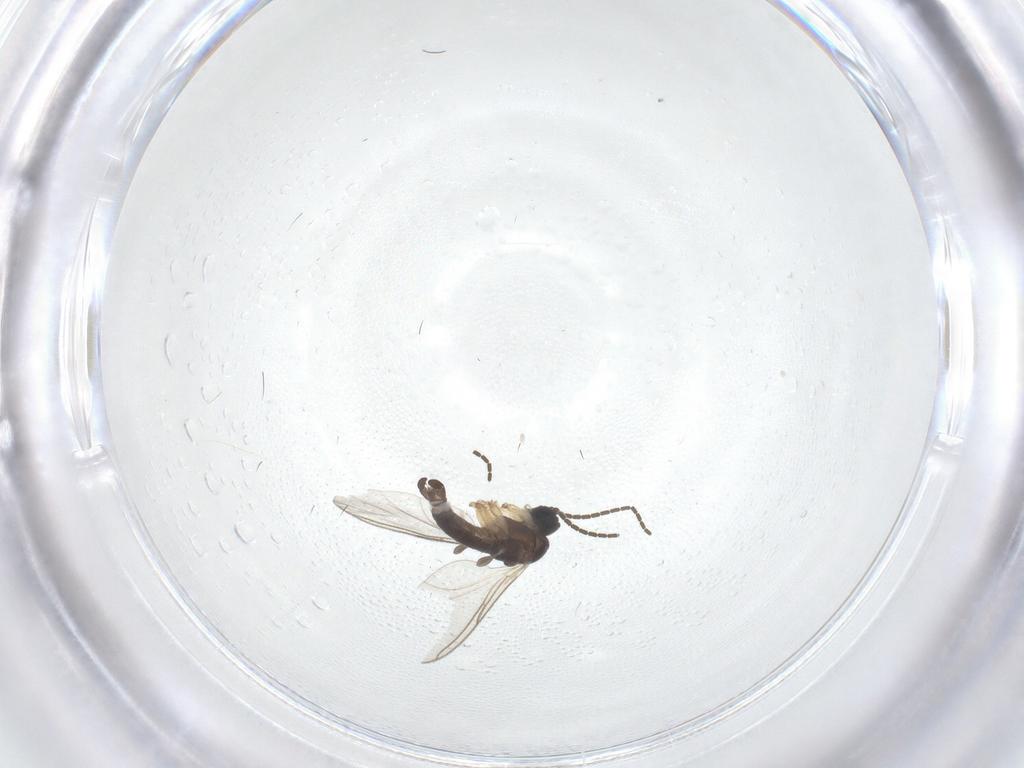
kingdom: Animalia
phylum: Arthropoda
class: Insecta
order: Diptera
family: Sciaridae
